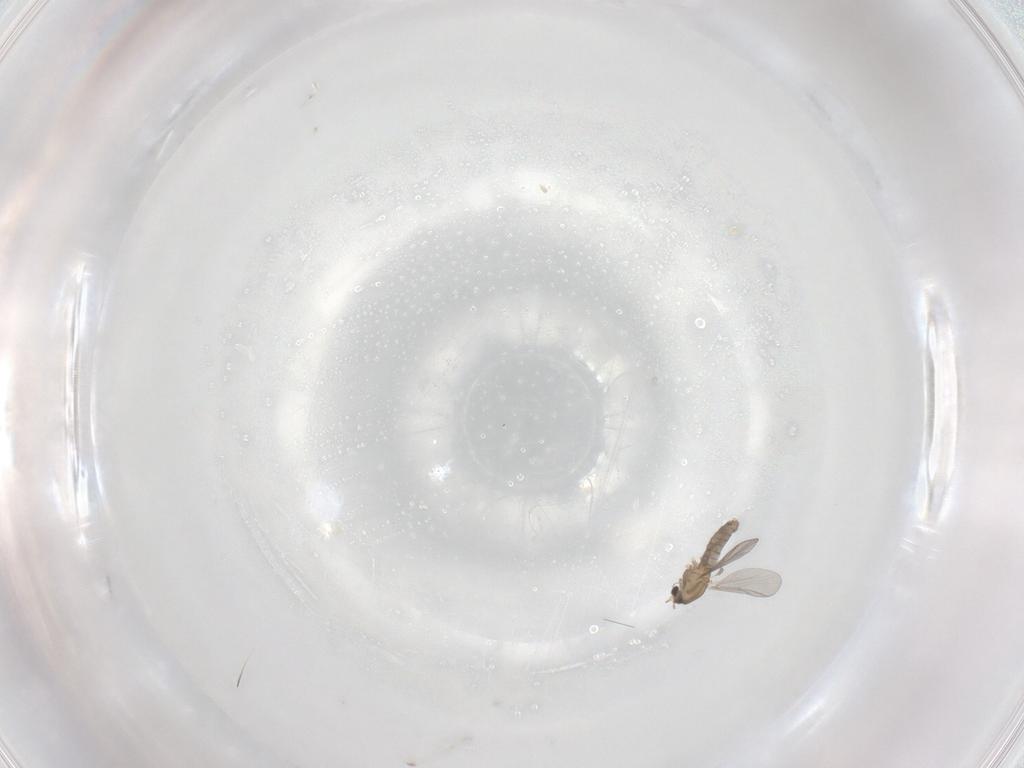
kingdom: Animalia
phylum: Arthropoda
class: Insecta
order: Diptera
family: Chironomidae
